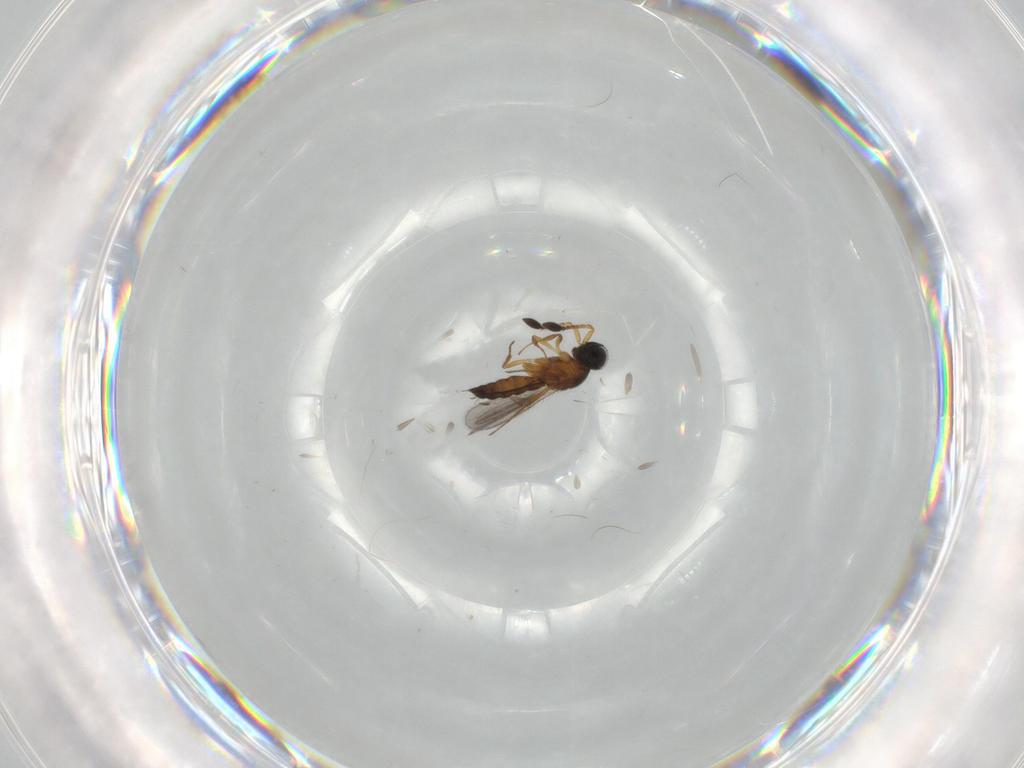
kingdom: Animalia
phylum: Arthropoda
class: Insecta
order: Hymenoptera
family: Scelionidae
